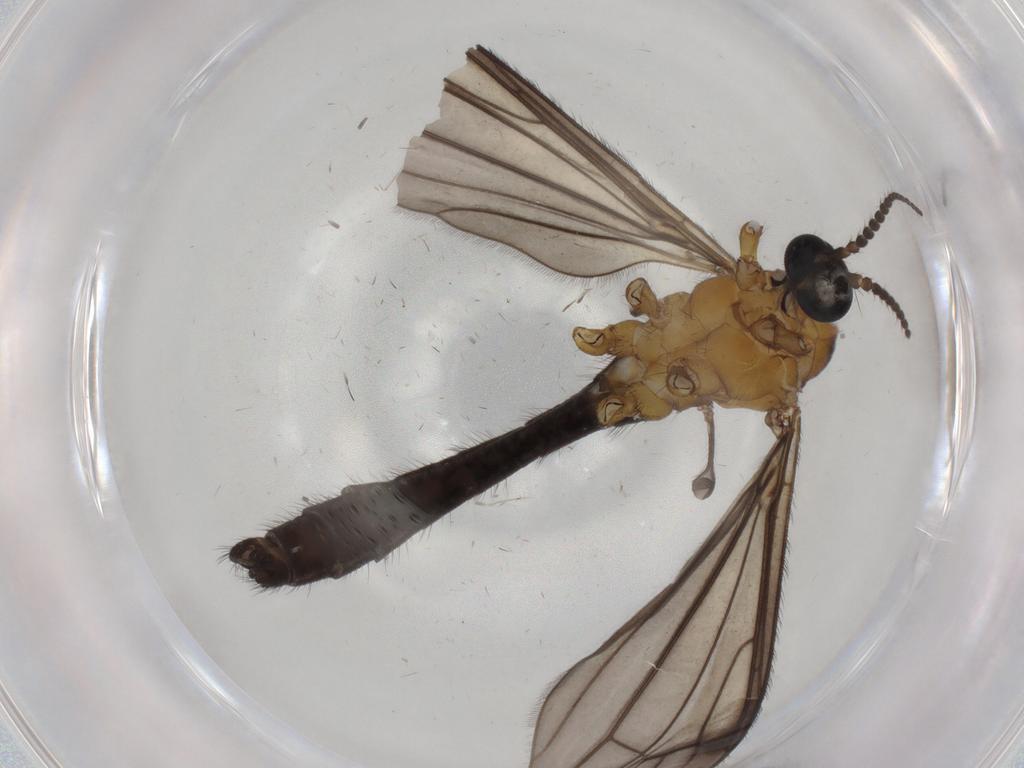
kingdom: Animalia
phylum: Arthropoda
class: Insecta
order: Diptera
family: Limoniidae
